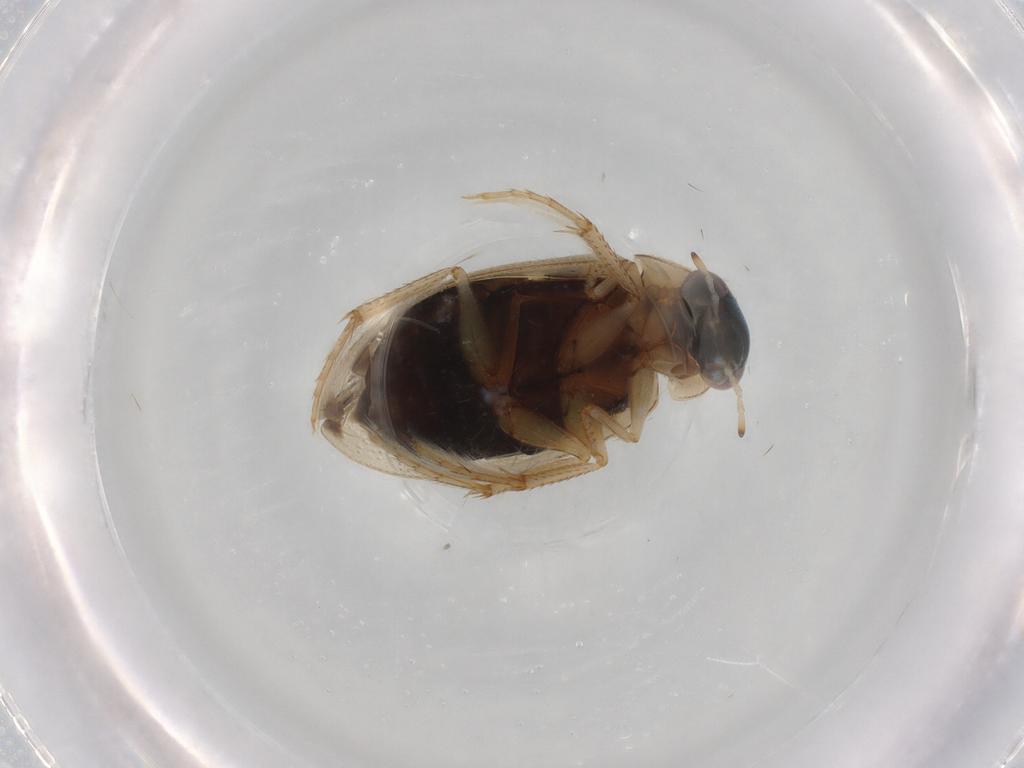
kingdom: Animalia
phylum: Arthropoda
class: Insecta
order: Coleoptera
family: Hydrophilidae
